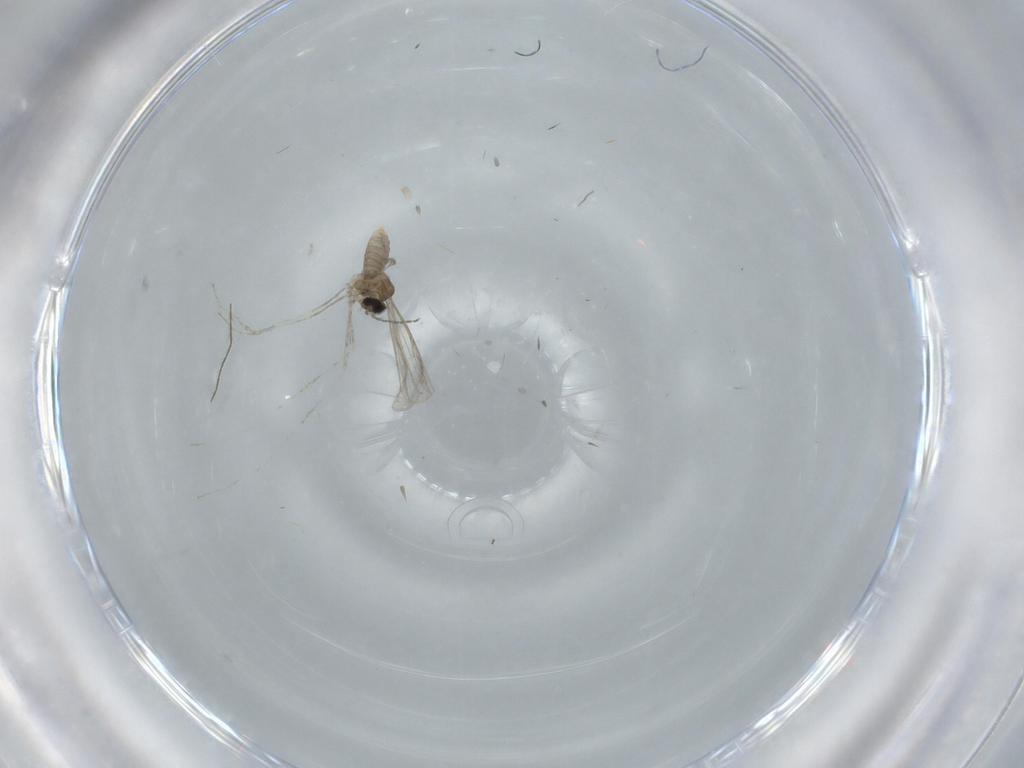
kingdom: Animalia
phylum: Arthropoda
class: Insecta
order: Diptera
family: Cecidomyiidae
